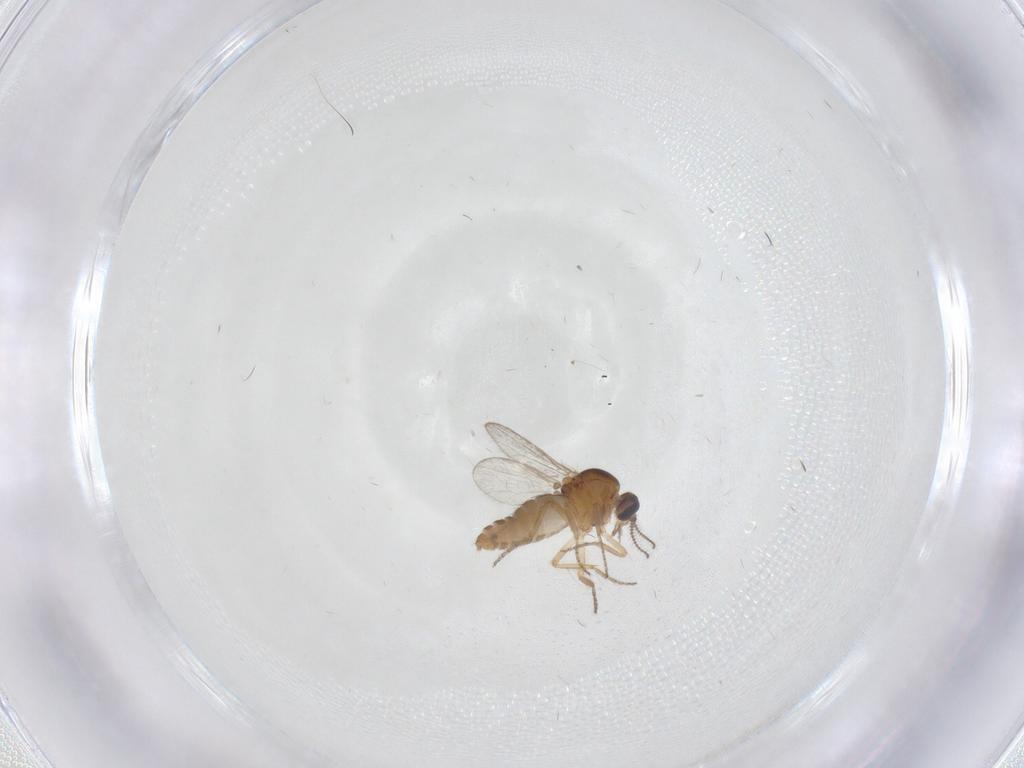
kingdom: Animalia
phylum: Arthropoda
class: Insecta
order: Diptera
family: Ceratopogonidae
